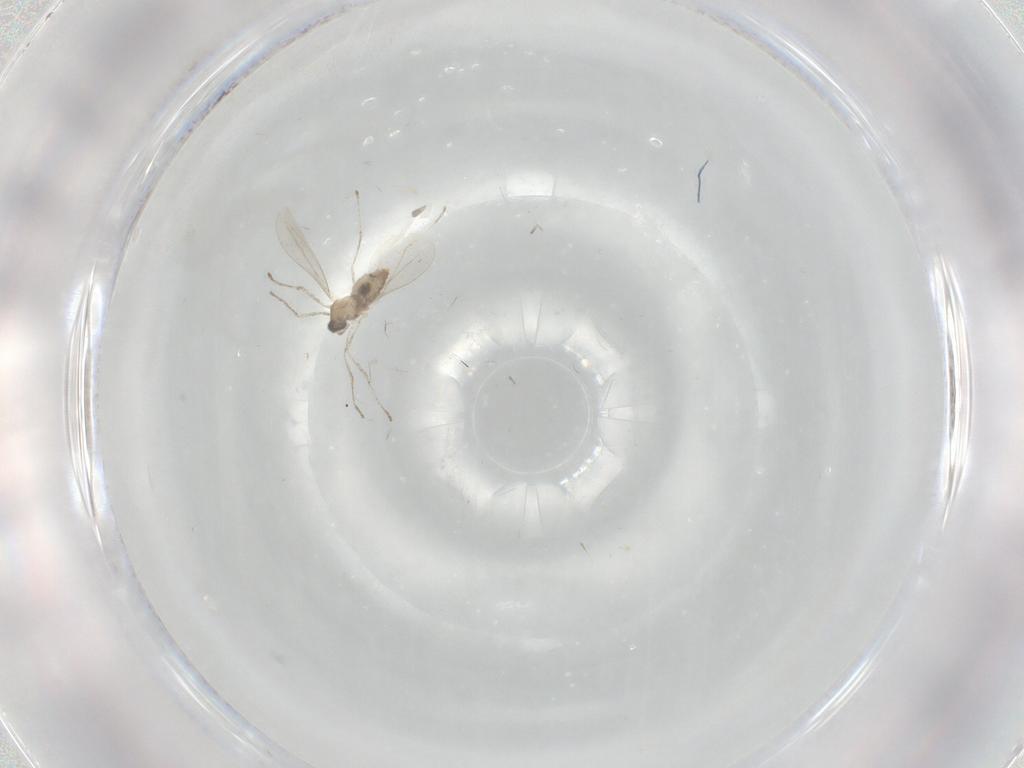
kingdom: Animalia
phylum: Arthropoda
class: Insecta
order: Diptera
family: Cecidomyiidae
